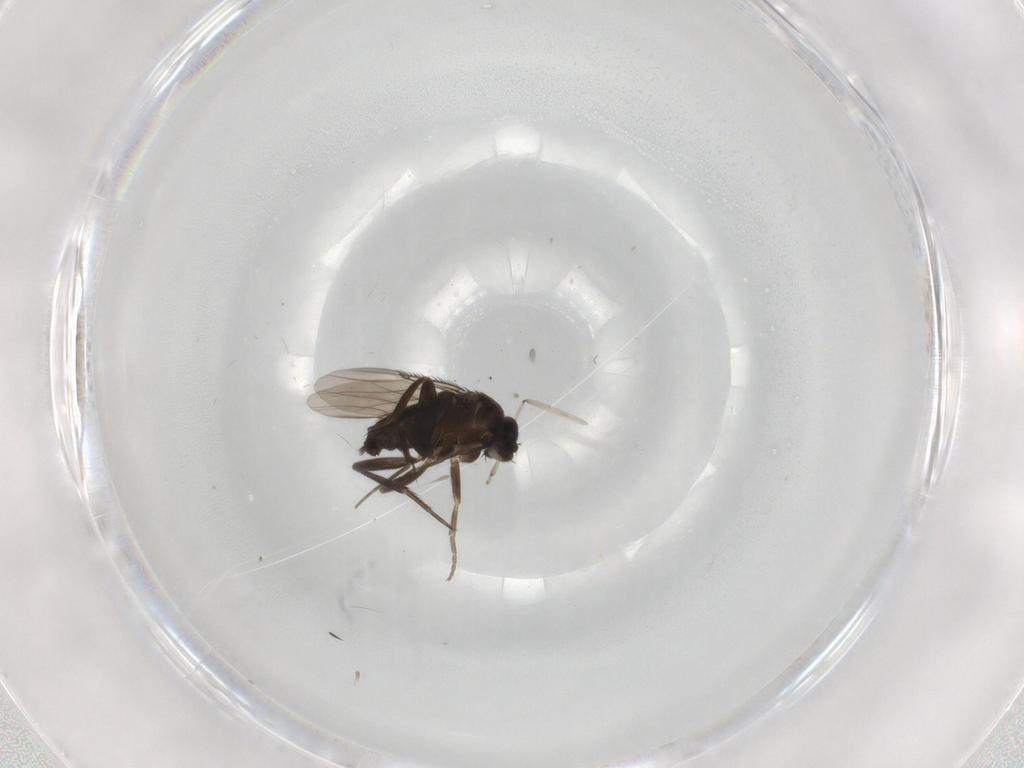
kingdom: Animalia
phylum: Arthropoda
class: Insecta
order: Diptera
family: Cecidomyiidae
